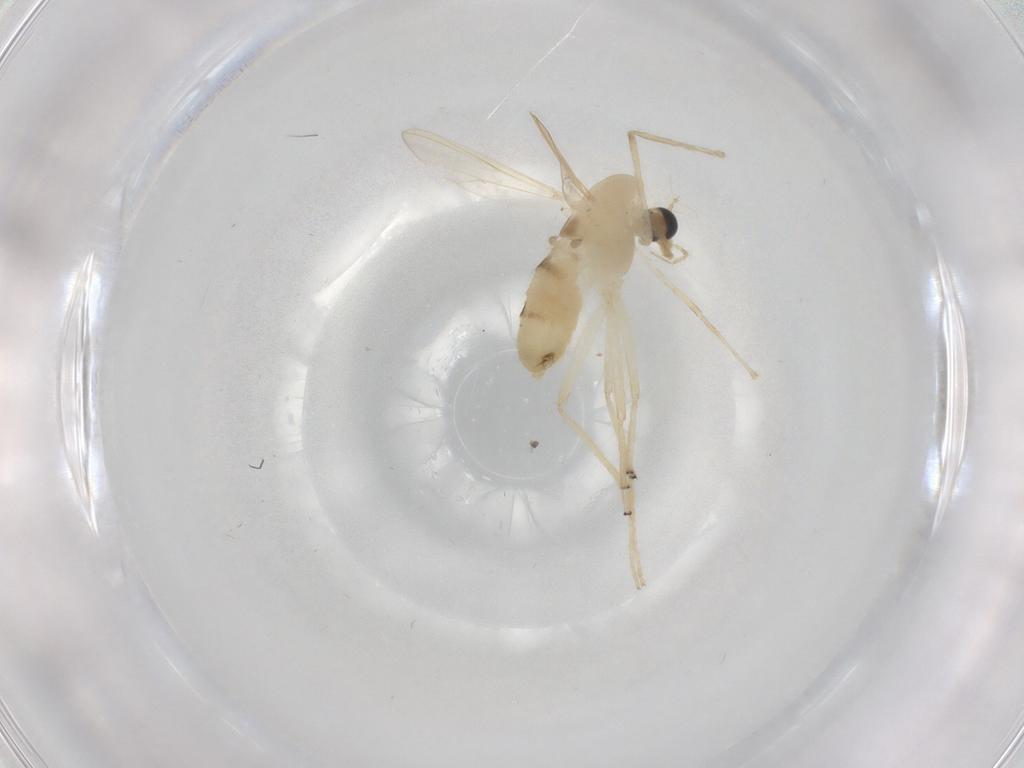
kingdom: Animalia
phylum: Arthropoda
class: Insecta
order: Diptera
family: Chironomidae
